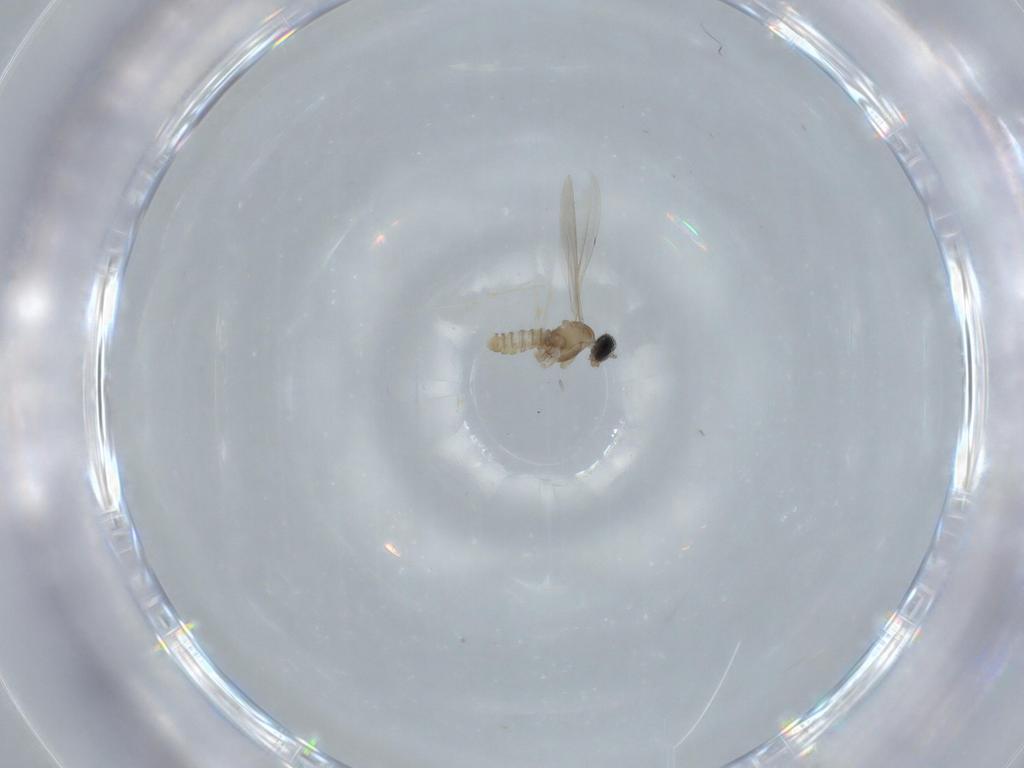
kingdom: Animalia
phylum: Arthropoda
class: Insecta
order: Diptera
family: Cecidomyiidae
